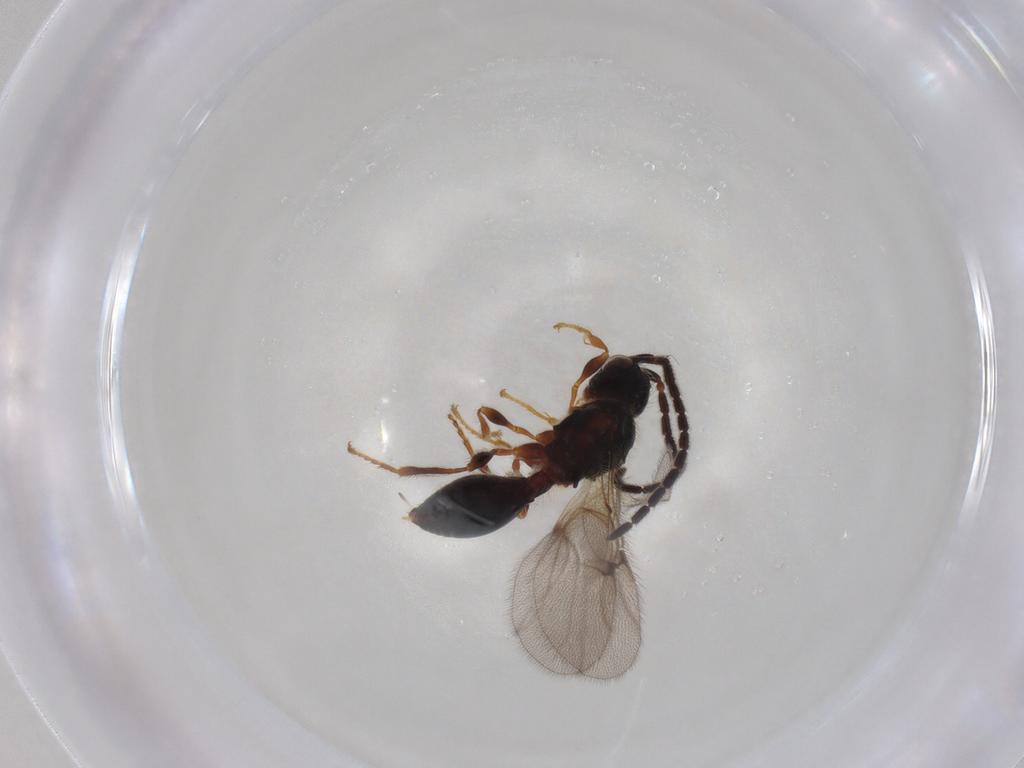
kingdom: Animalia
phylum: Arthropoda
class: Insecta
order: Hymenoptera
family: Diapriidae
